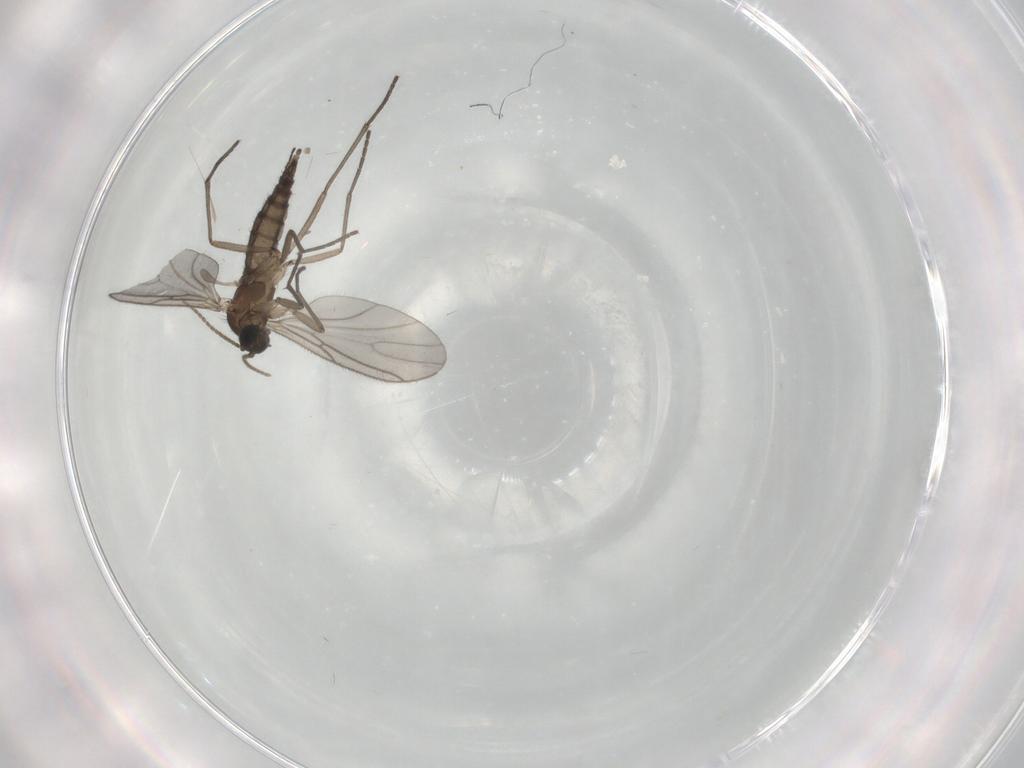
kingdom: Animalia
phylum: Arthropoda
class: Insecta
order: Diptera
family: Sciaridae
